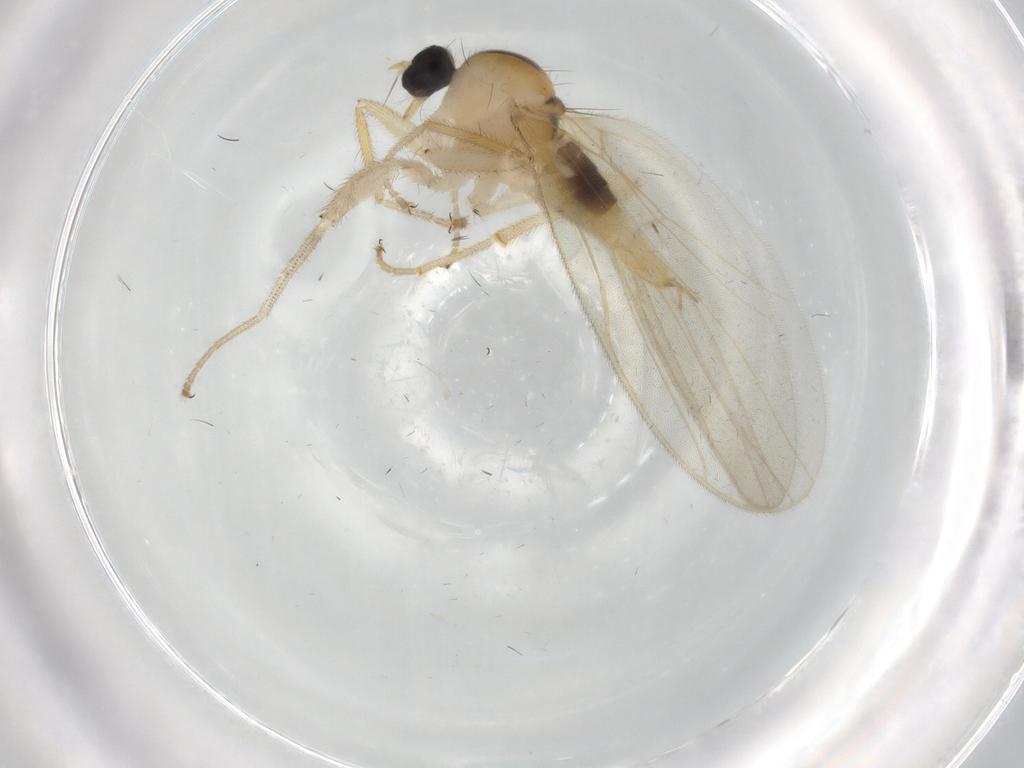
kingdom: Animalia
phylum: Arthropoda
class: Insecta
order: Diptera
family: Hybotidae
